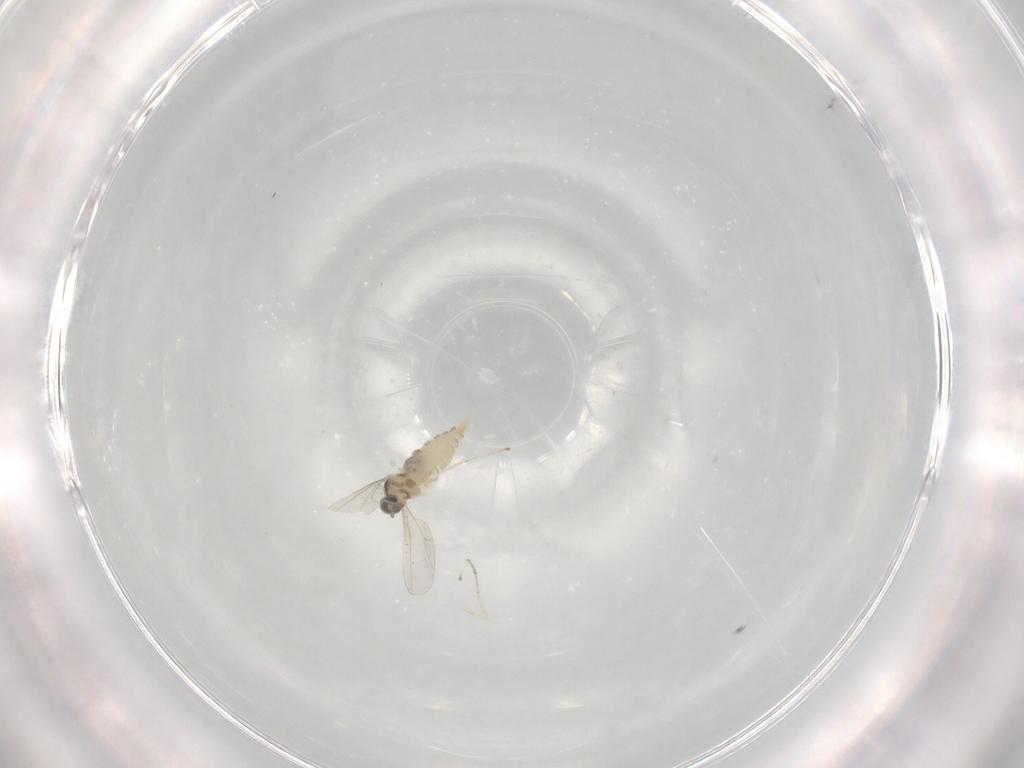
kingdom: Animalia
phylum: Arthropoda
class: Insecta
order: Diptera
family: Cecidomyiidae
